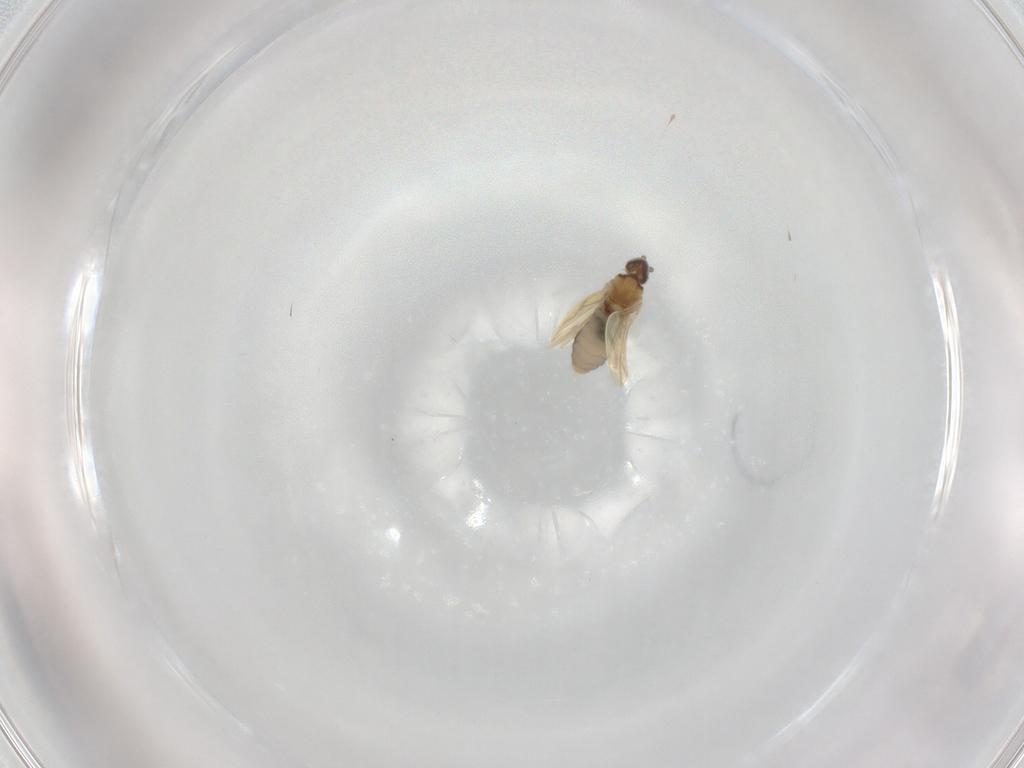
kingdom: Animalia
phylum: Arthropoda
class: Insecta
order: Diptera
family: Cecidomyiidae
